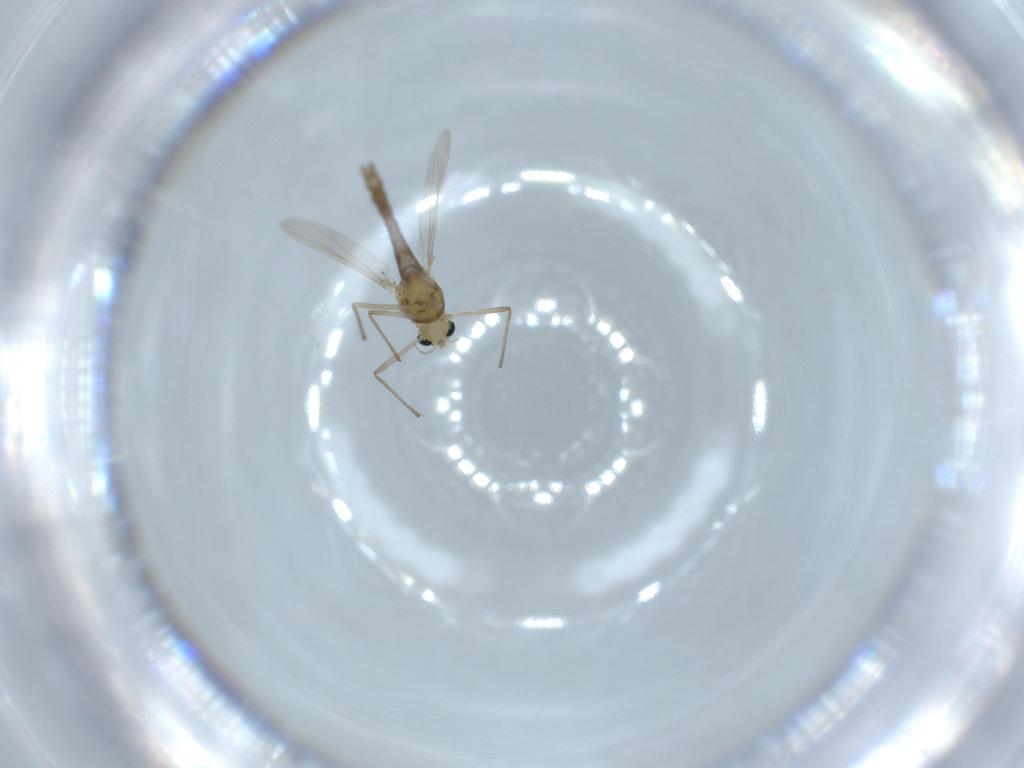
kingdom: Animalia
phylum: Arthropoda
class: Insecta
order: Diptera
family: Chironomidae
